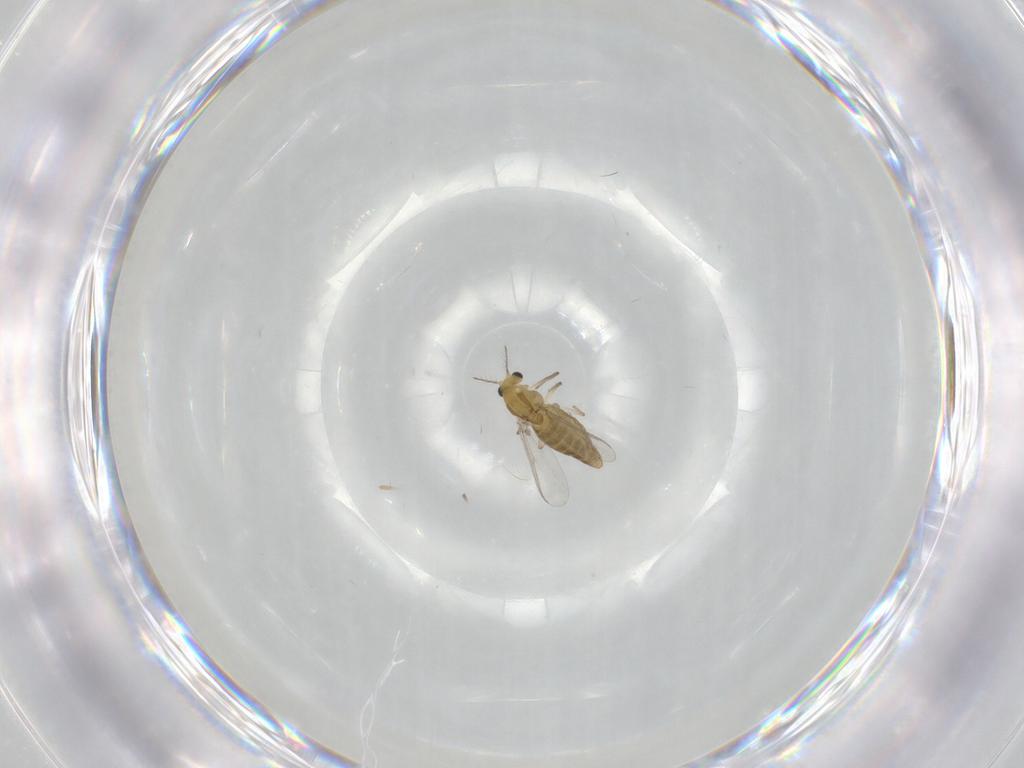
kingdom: Animalia
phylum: Arthropoda
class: Insecta
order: Diptera
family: Chironomidae
